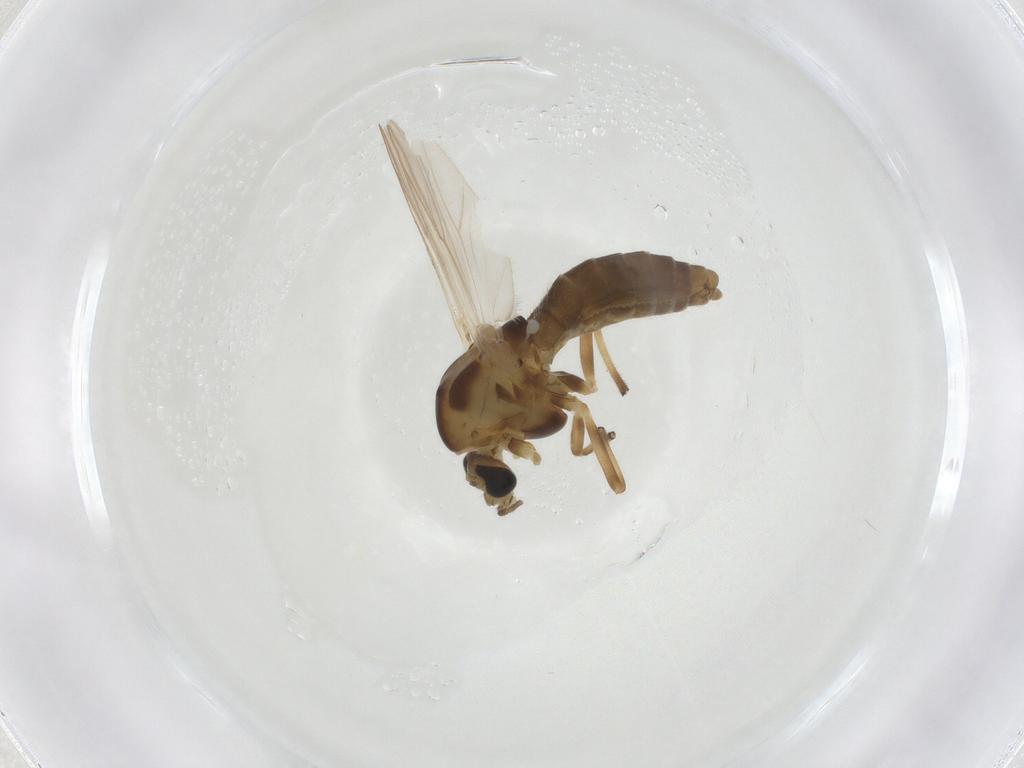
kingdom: Animalia
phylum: Arthropoda
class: Insecta
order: Diptera
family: Chironomidae
